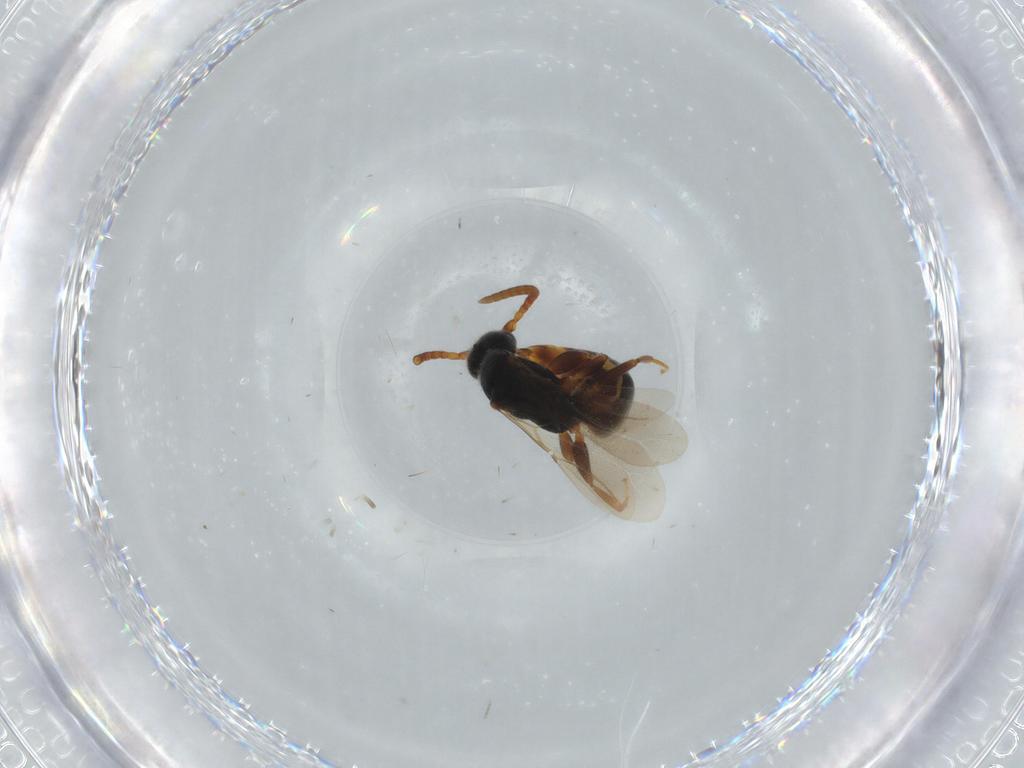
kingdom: Animalia
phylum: Arthropoda
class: Insecta
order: Hymenoptera
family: Bethylidae
